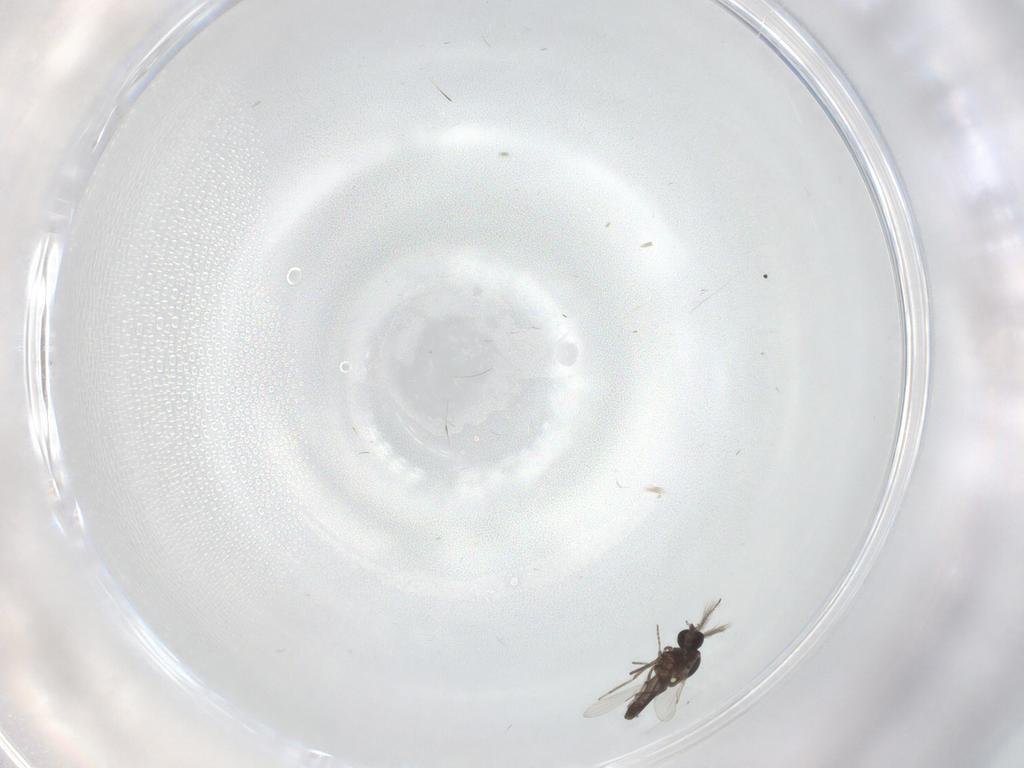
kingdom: Animalia
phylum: Arthropoda
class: Insecta
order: Diptera
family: Ceratopogonidae
